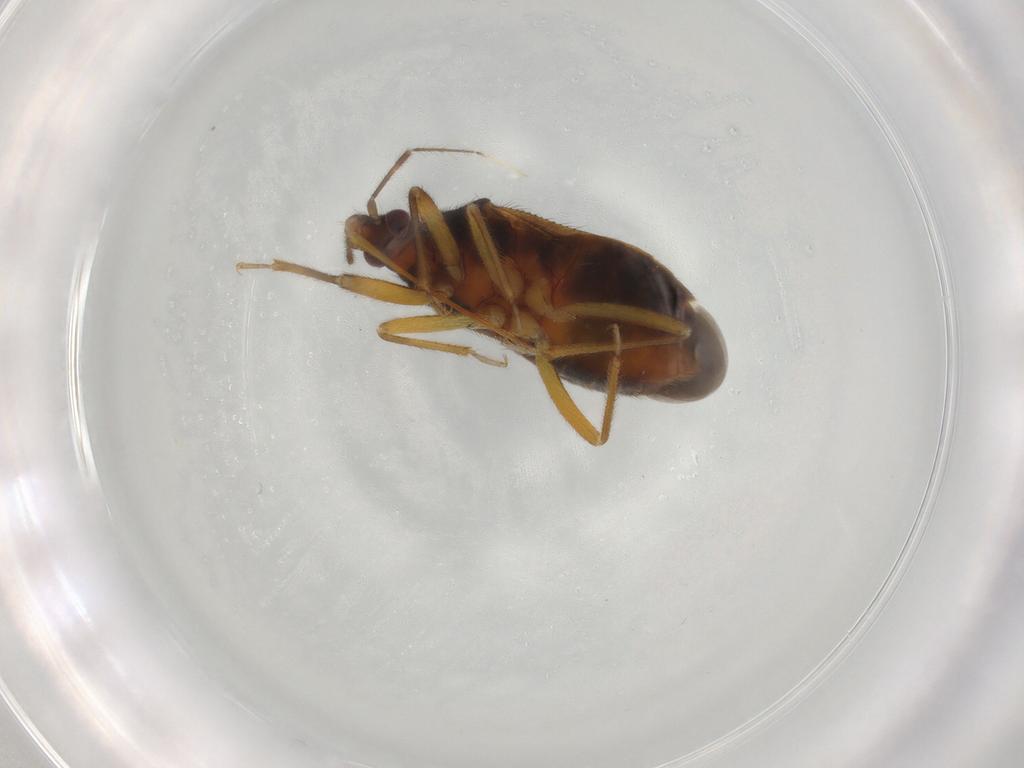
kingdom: Animalia
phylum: Arthropoda
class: Insecta
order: Hemiptera
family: Anthocoridae
